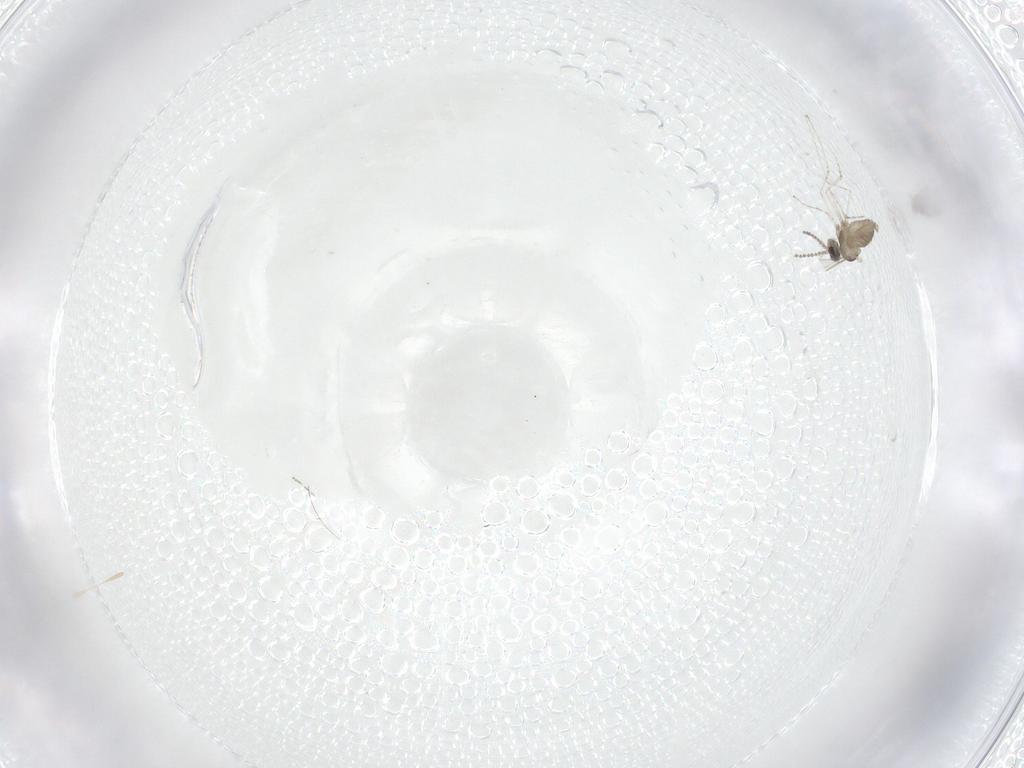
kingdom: Animalia
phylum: Arthropoda
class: Insecta
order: Diptera
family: Cecidomyiidae
